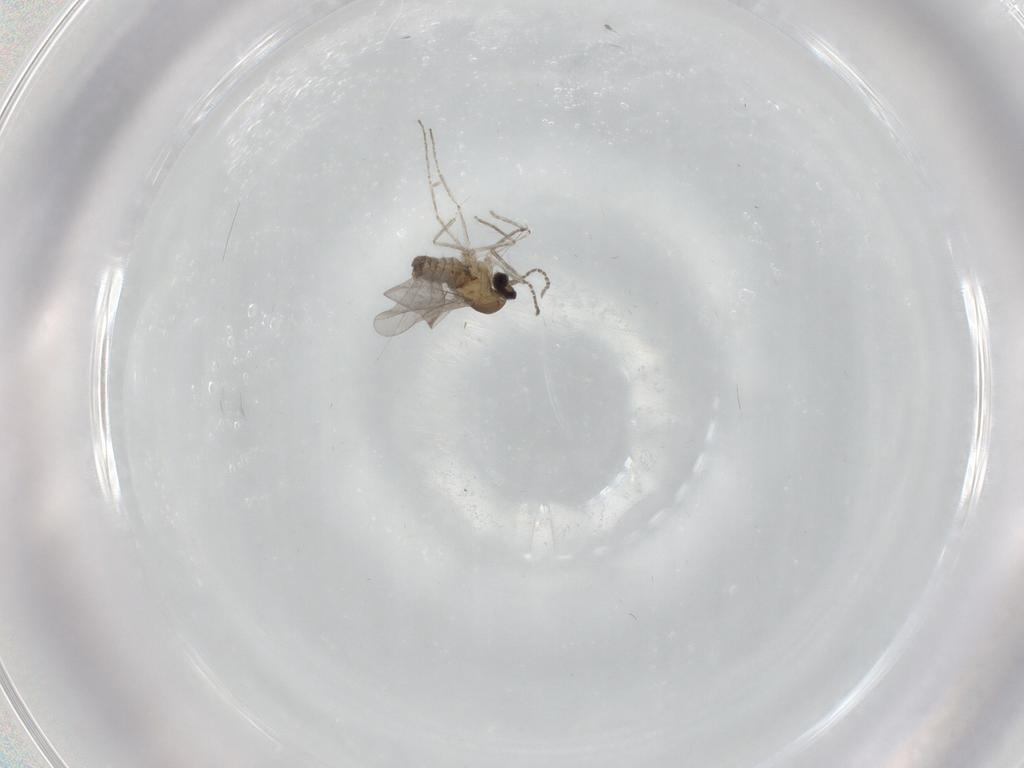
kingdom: Animalia
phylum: Arthropoda
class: Insecta
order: Diptera
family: Cecidomyiidae
